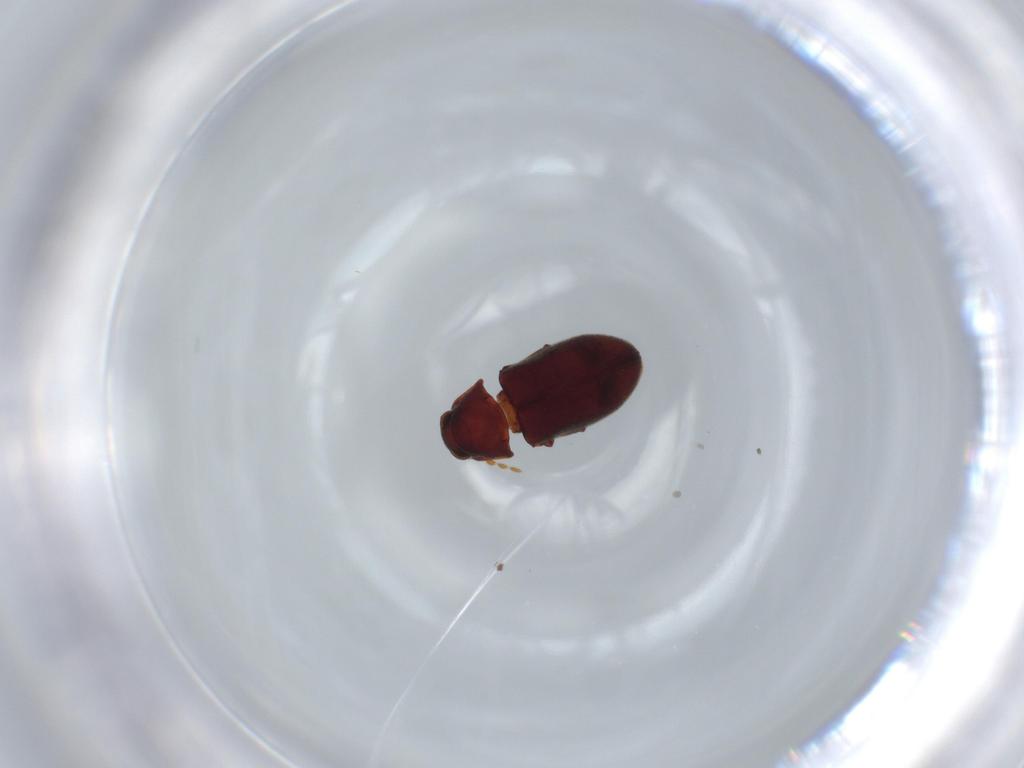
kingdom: Animalia
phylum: Arthropoda
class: Insecta
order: Coleoptera
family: Ptinidae
